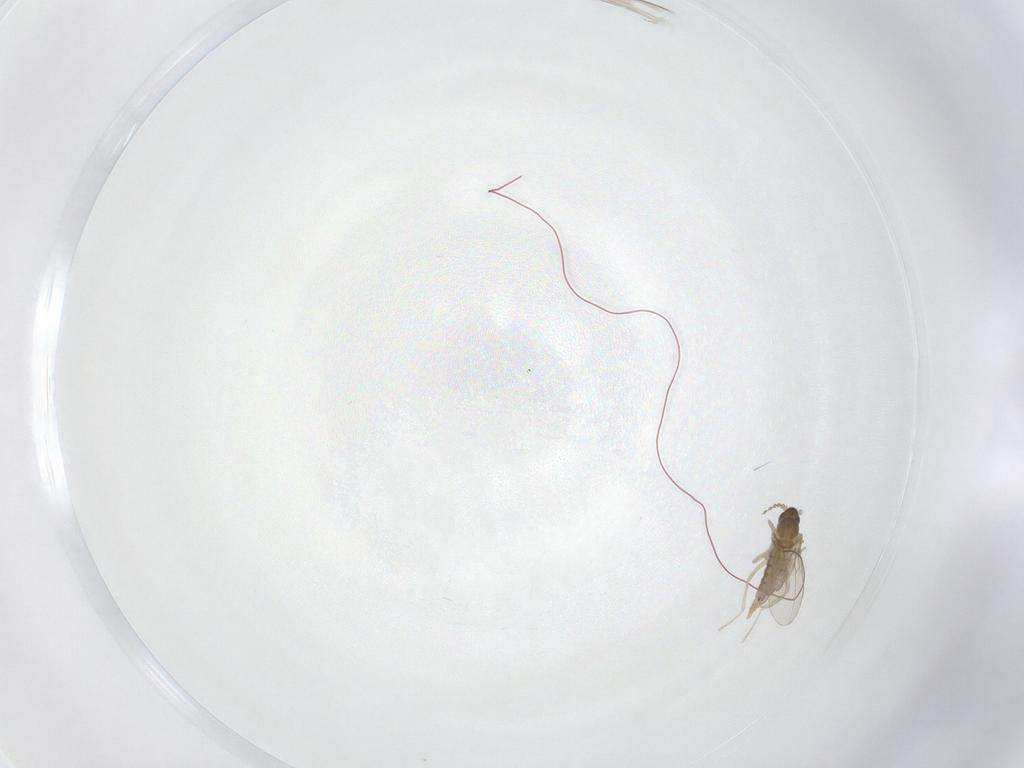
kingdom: Animalia
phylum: Arthropoda
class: Insecta
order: Diptera
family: Cecidomyiidae
